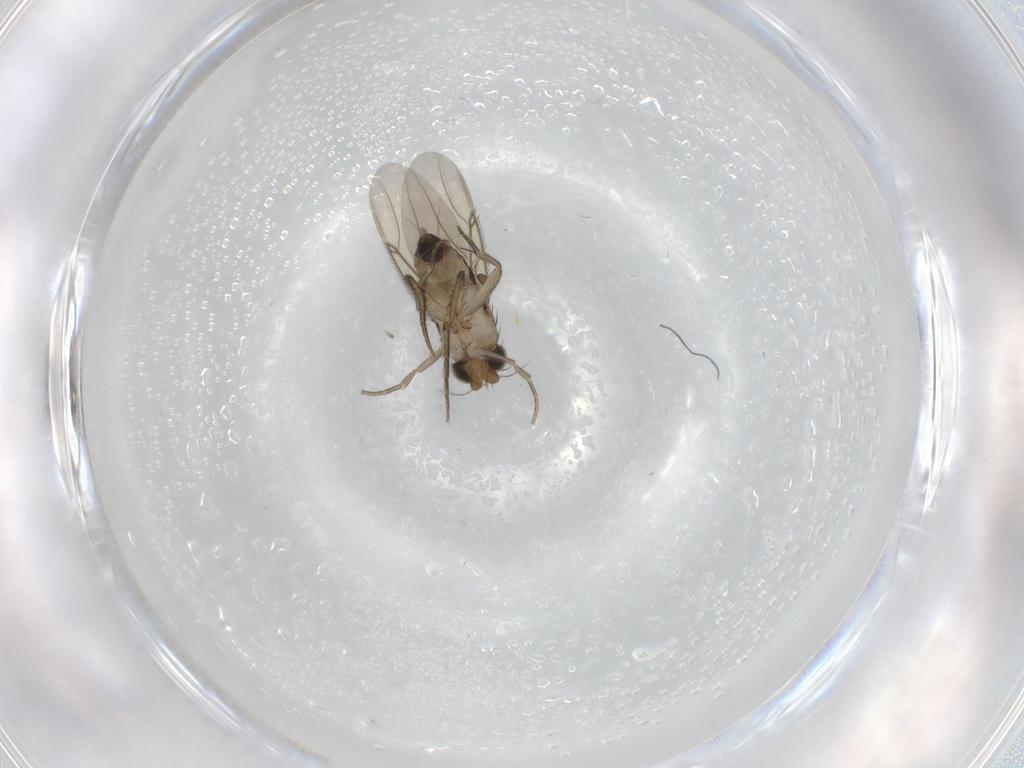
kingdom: Animalia
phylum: Arthropoda
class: Insecta
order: Diptera
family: Phoridae
